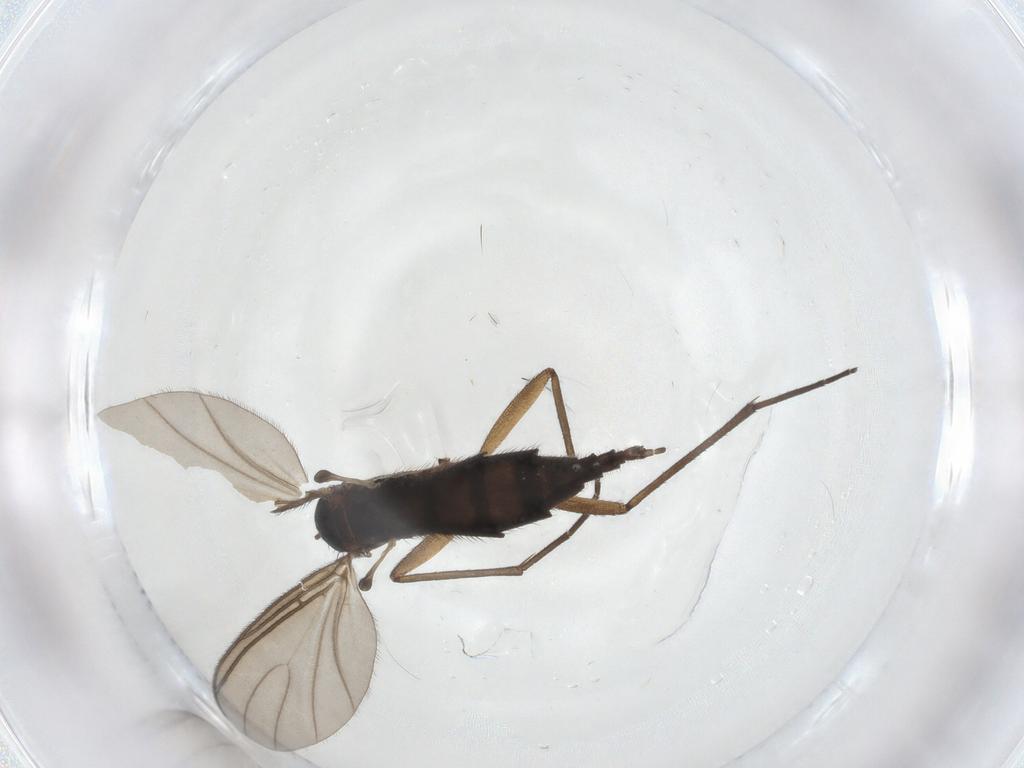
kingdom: Animalia
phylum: Arthropoda
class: Insecta
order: Diptera
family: Sciaridae
